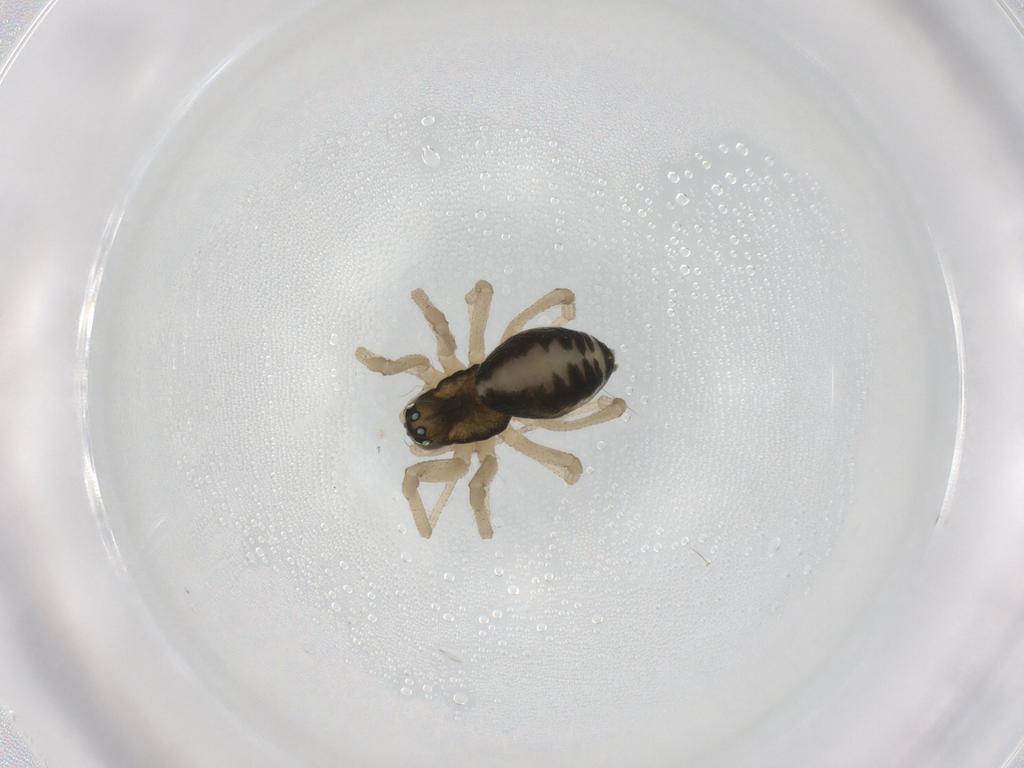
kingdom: Animalia
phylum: Arthropoda
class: Arachnida
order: Araneae
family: Linyphiidae
